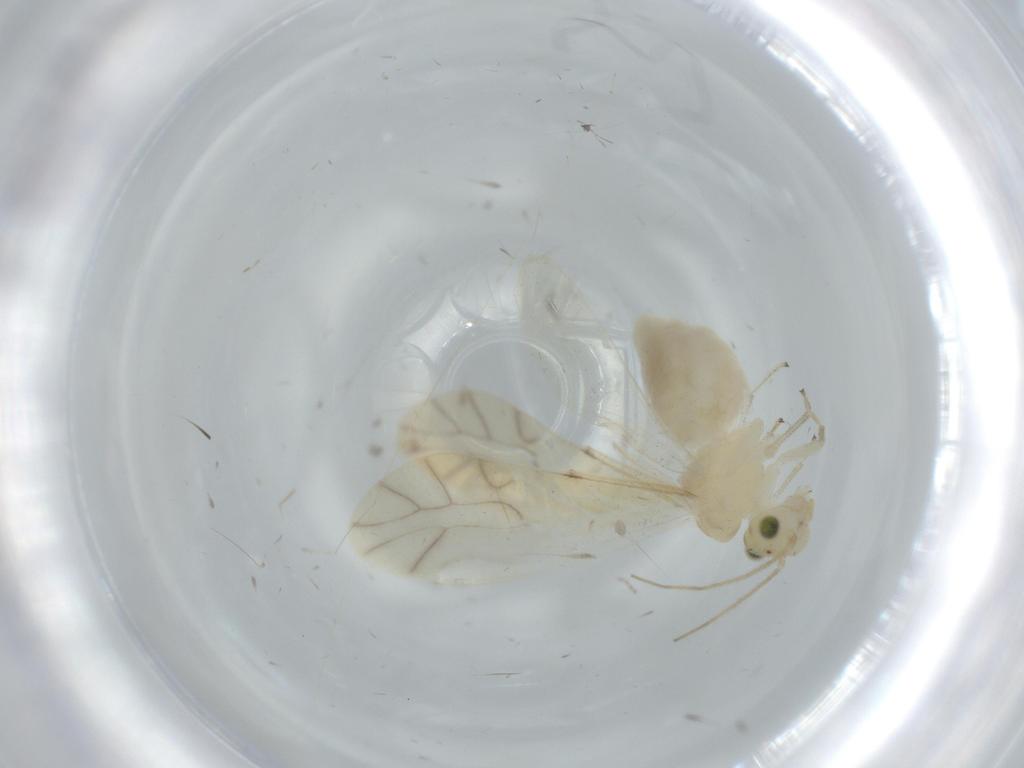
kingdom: Animalia
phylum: Arthropoda
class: Insecta
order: Psocodea
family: Caeciliusidae
